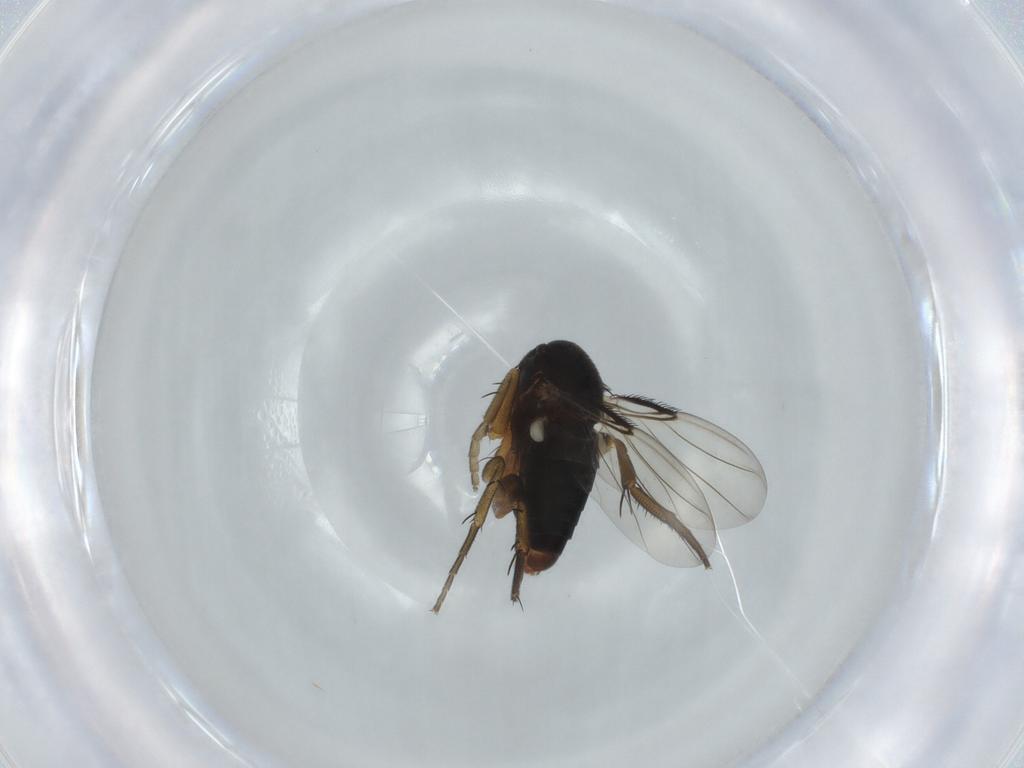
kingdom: Animalia
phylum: Arthropoda
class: Insecta
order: Diptera
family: Phoridae
